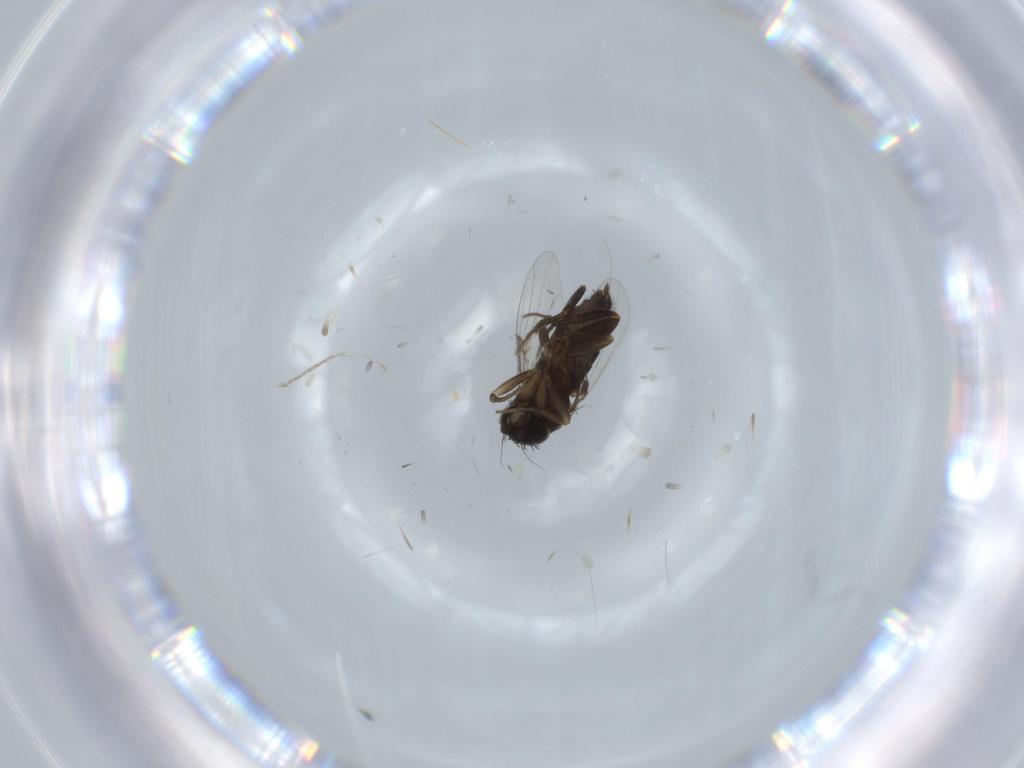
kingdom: Animalia
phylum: Arthropoda
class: Insecta
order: Diptera
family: Phoridae
